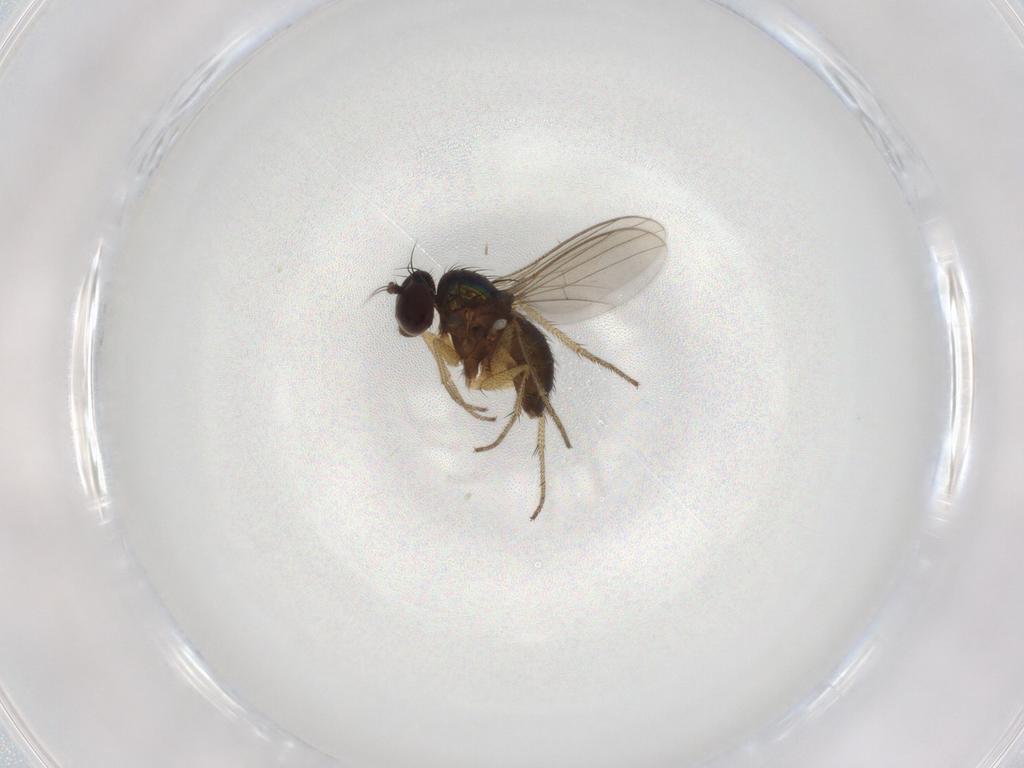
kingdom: Animalia
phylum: Arthropoda
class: Insecta
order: Diptera
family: Dolichopodidae
